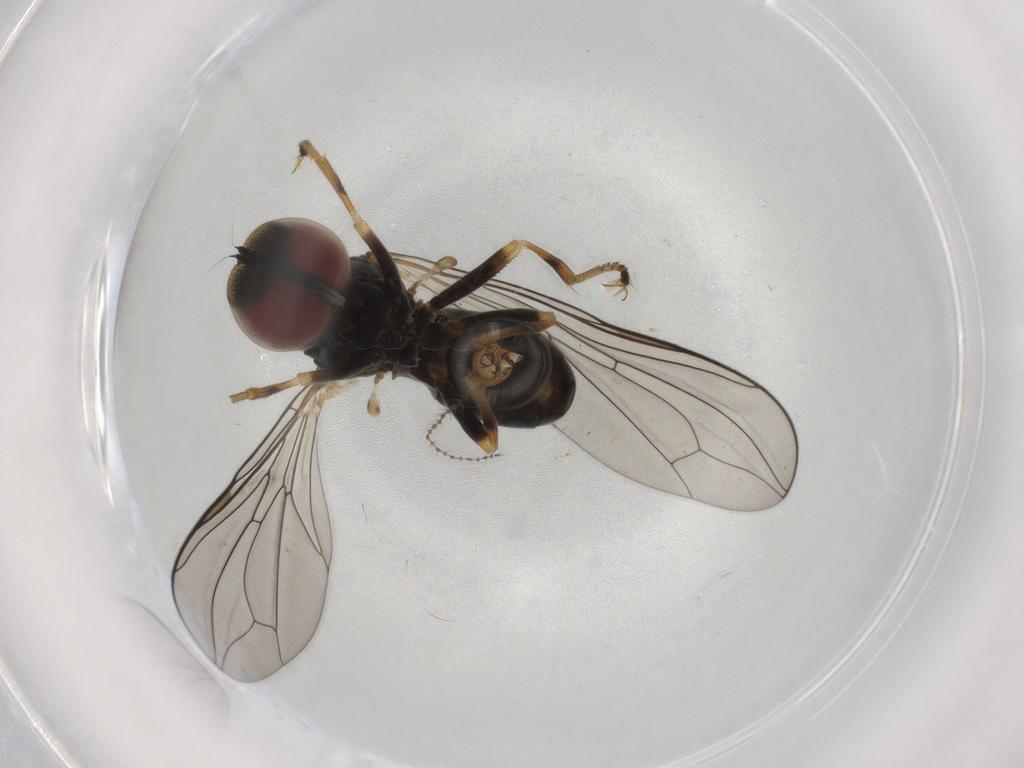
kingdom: Animalia
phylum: Arthropoda
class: Insecta
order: Diptera
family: Pipunculidae
